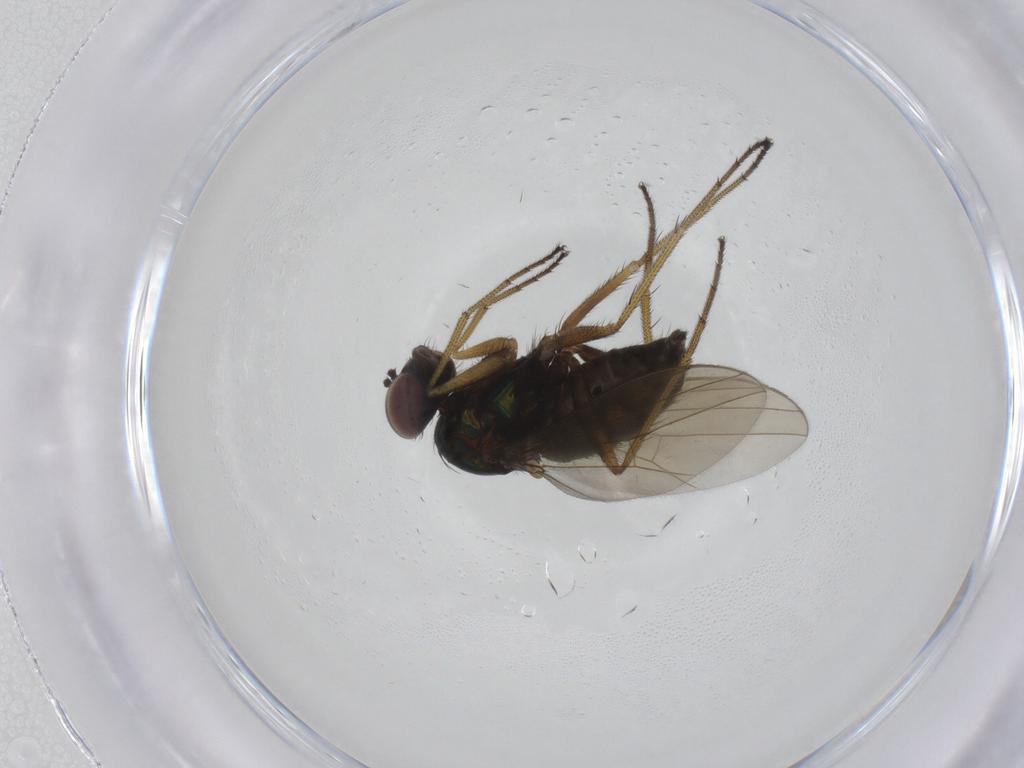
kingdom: Animalia
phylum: Arthropoda
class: Insecta
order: Diptera
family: Dolichopodidae
